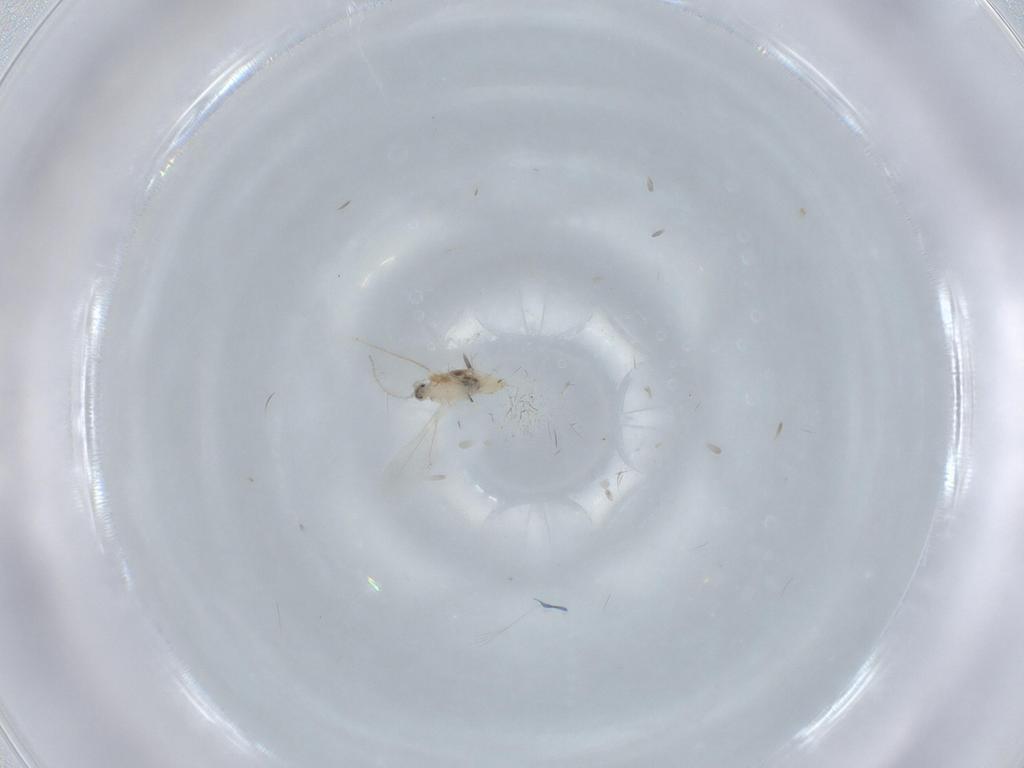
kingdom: Animalia
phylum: Arthropoda
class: Insecta
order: Diptera
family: Cecidomyiidae
